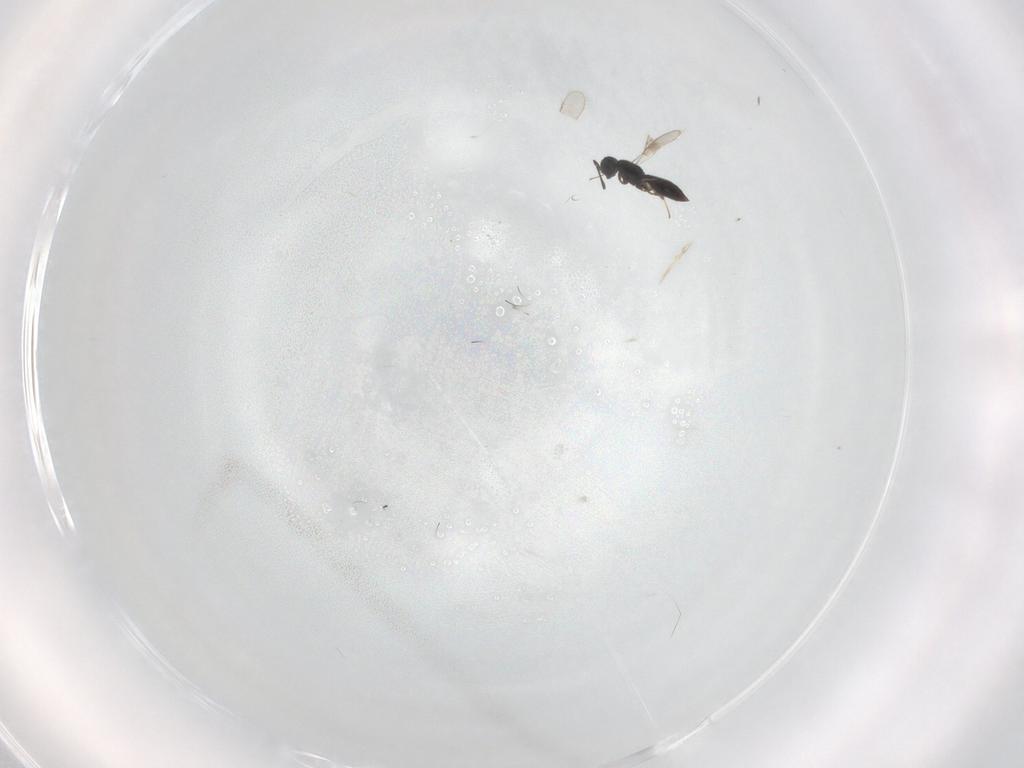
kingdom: Animalia
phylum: Arthropoda
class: Insecta
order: Hymenoptera
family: Scelionidae
